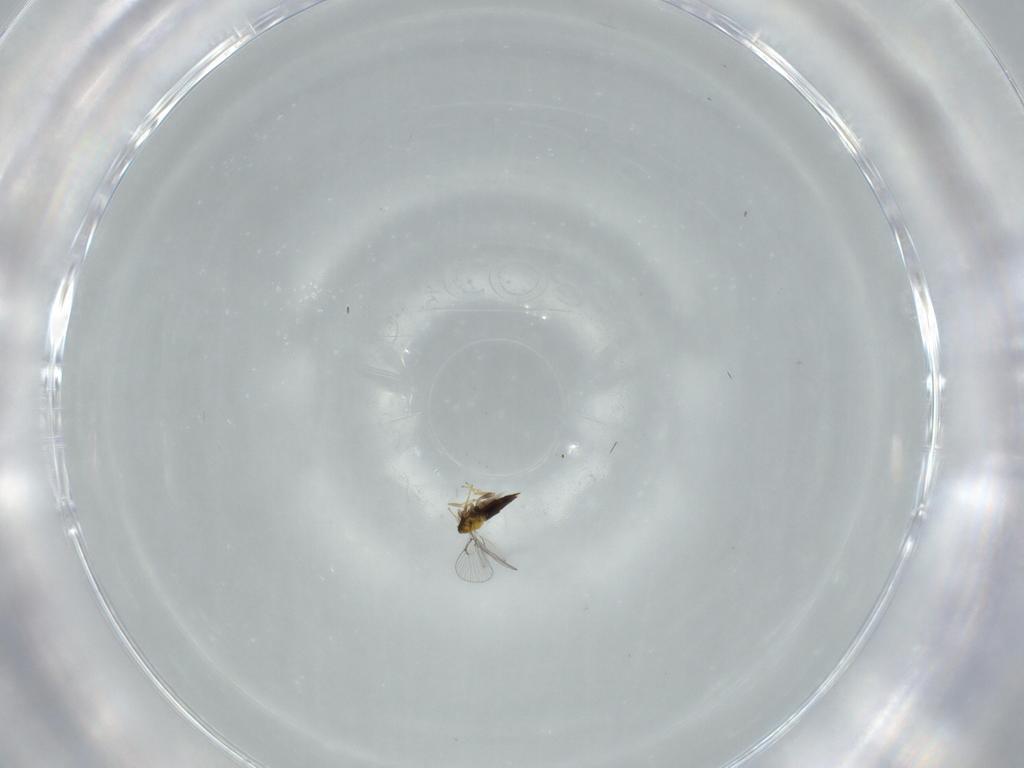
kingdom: Animalia
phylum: Arthropoda
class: Insecta
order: Hymenoptera
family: Trichogrammatidae
